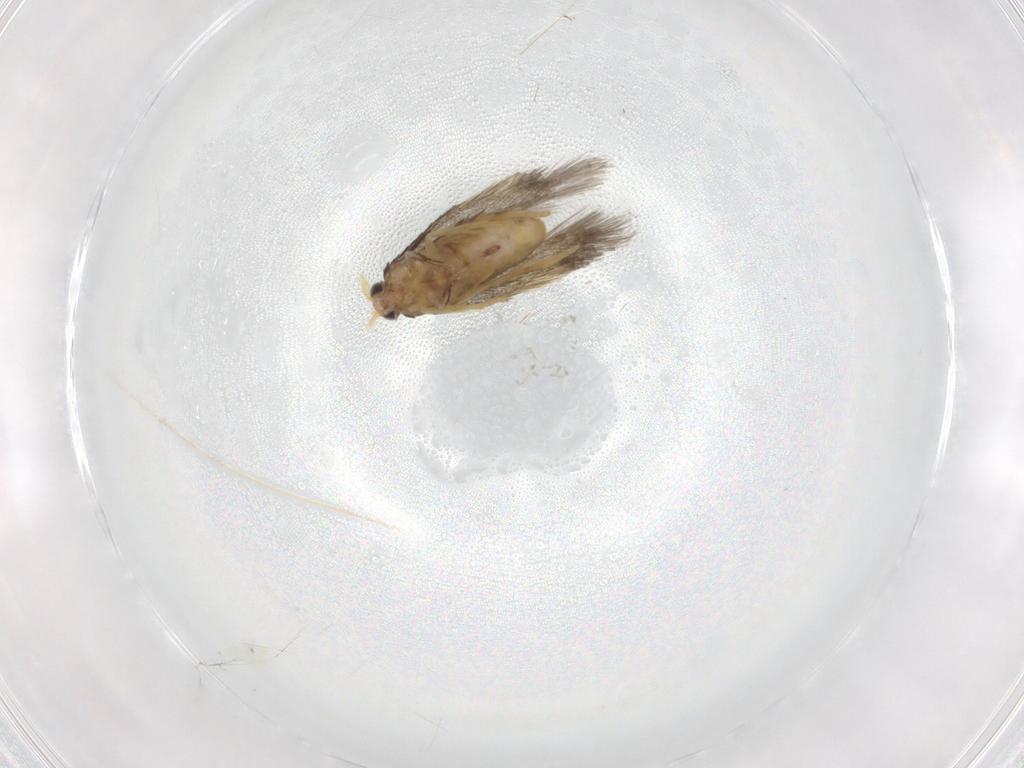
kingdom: Animalia
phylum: Arthropoda
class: Insecta
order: Lepidoptera
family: Nepticulidae
